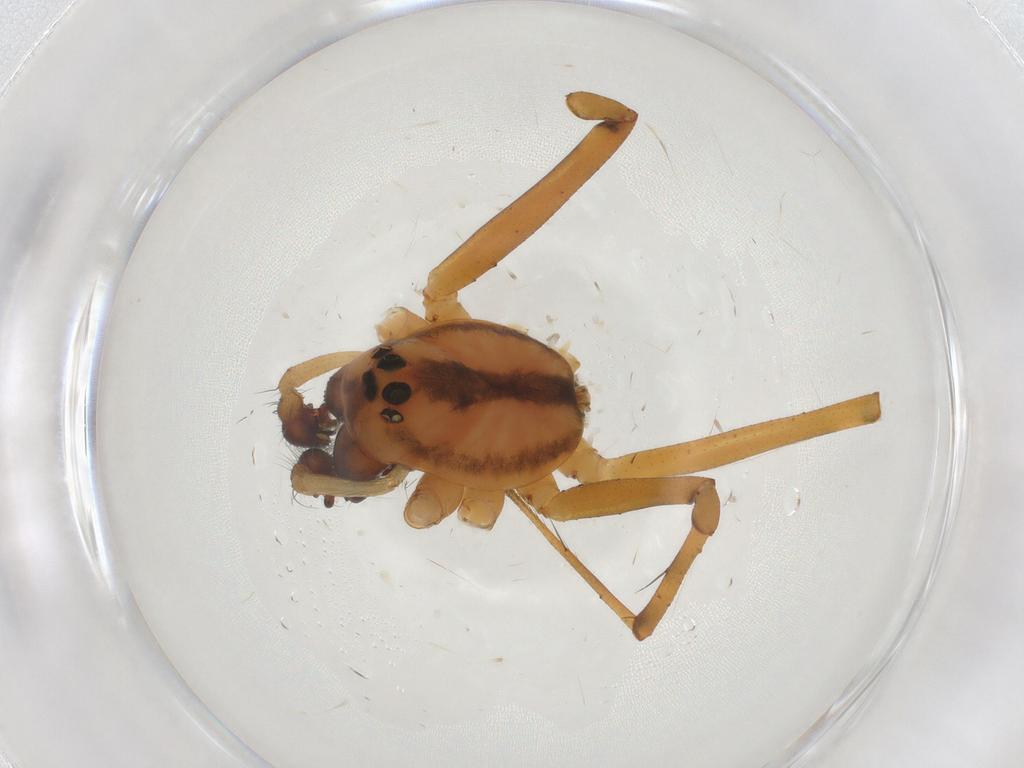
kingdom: Animalia
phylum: Arthropoda
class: Arachnida
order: Araneae
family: Linyphiidae
